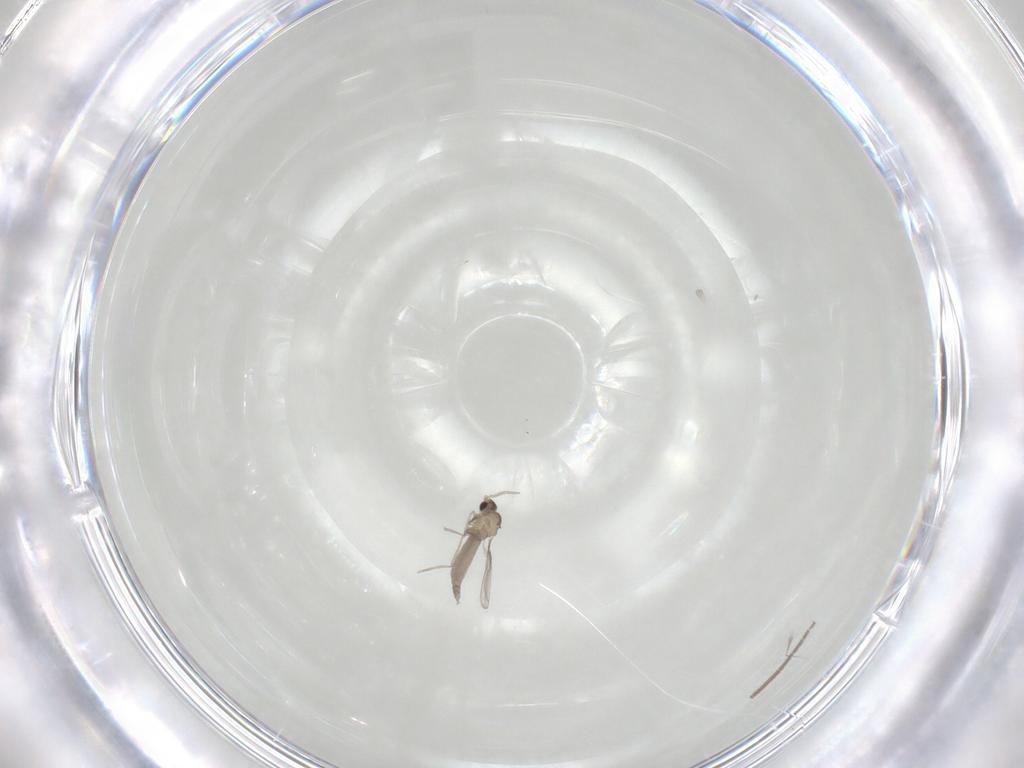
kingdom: Animalia
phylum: Arthropoda
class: Insecta
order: Diptera
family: Cecidomyiidae
